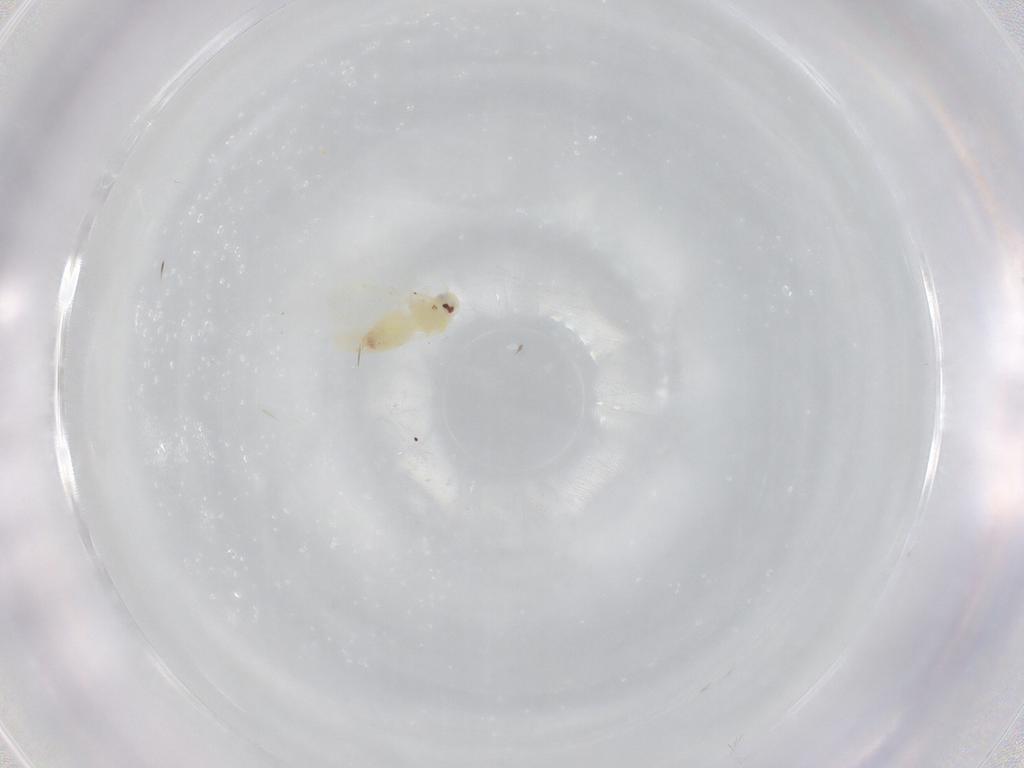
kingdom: Animalia
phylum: Arthropoda
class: Insecta
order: Hemiptera
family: Aleyrodidae
